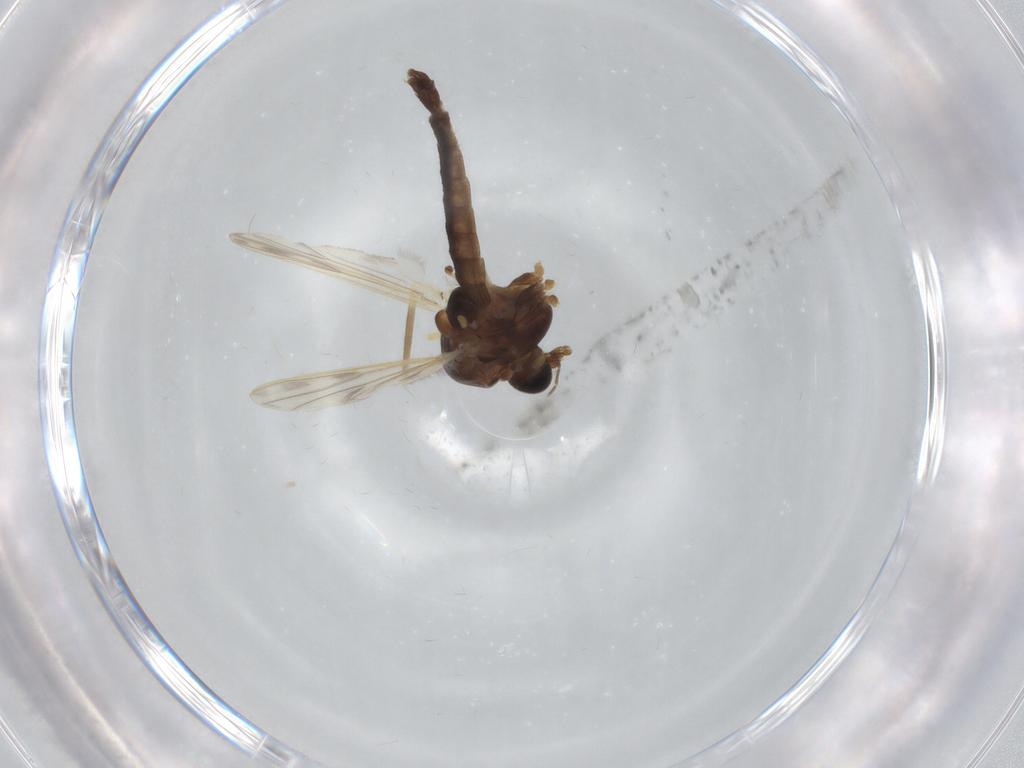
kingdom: Animalia
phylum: Arthropoda
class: Insecta
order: Diptera
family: Chironomidae
